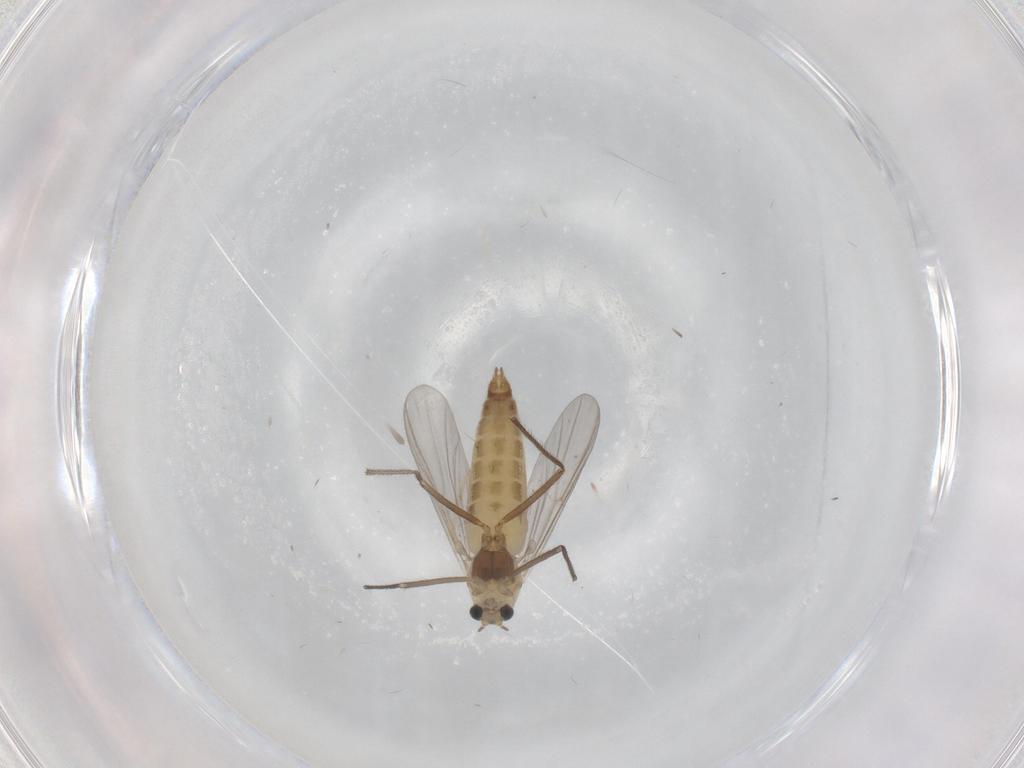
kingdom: Animalia
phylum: Arthropoda
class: Insecta
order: Diptera
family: Chironomidae
